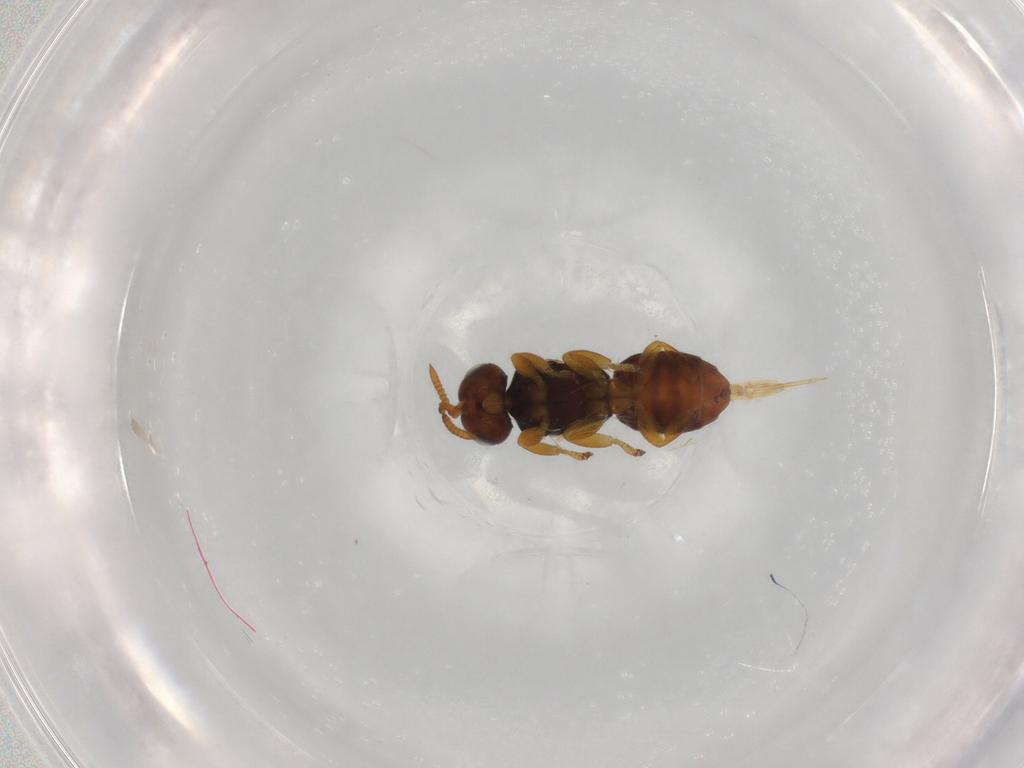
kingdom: Animalia
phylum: Arthropoda
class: Insecta
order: Hymenoptera
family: Scelionidae
